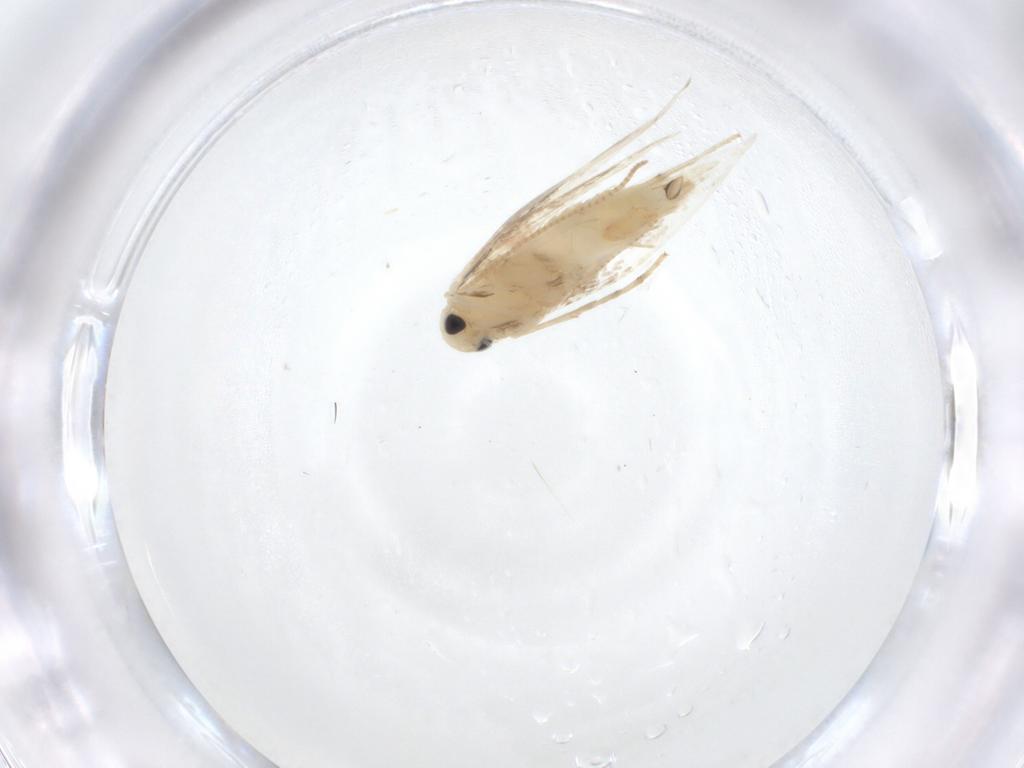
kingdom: Animalia
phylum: Arthropoda
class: Insecta
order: Lepidoptera
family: Gracillariidae
